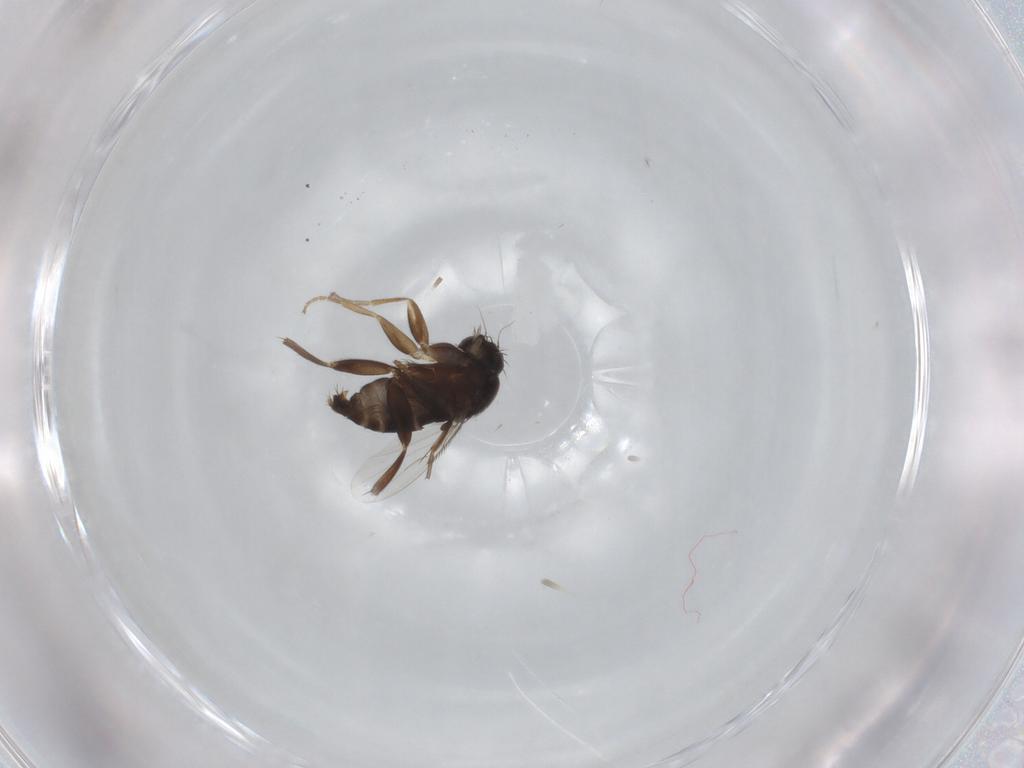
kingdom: Animalia
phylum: Arthropoda
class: Insecta
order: Diptera
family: Phoridae
